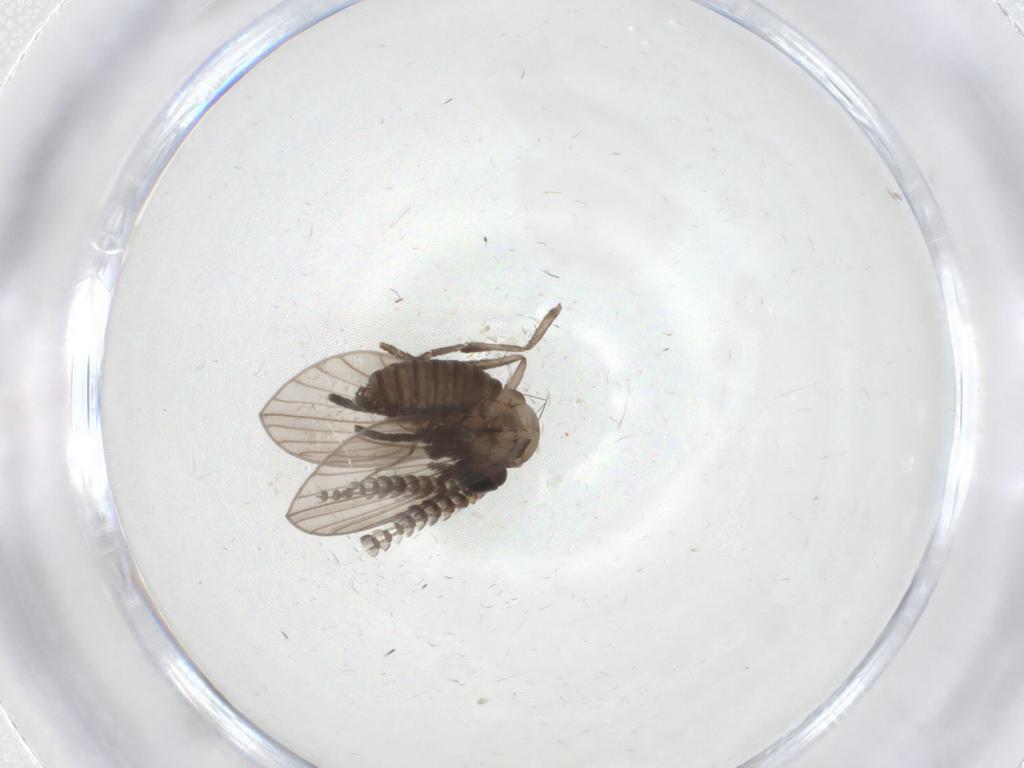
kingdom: Animalia
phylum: Arthropoda
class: Insecta
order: Diptera
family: Cecidomyiidae
